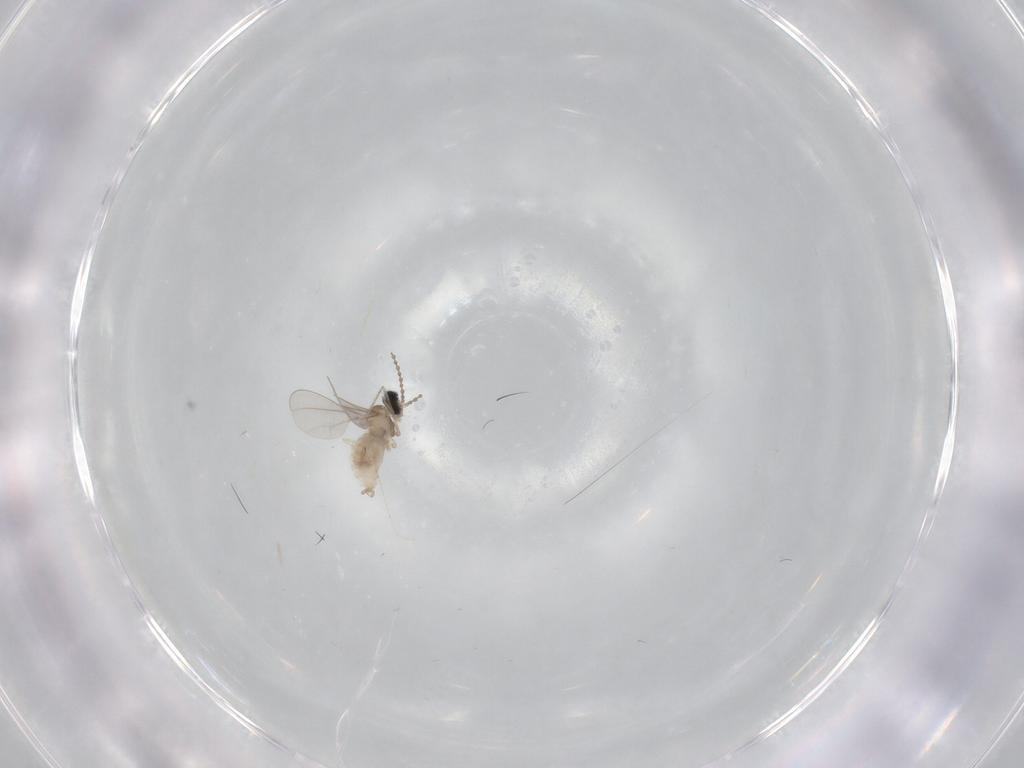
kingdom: Animalia
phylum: Arthropoda
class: Insecta
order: Diptera
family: Cecidomyiidae
